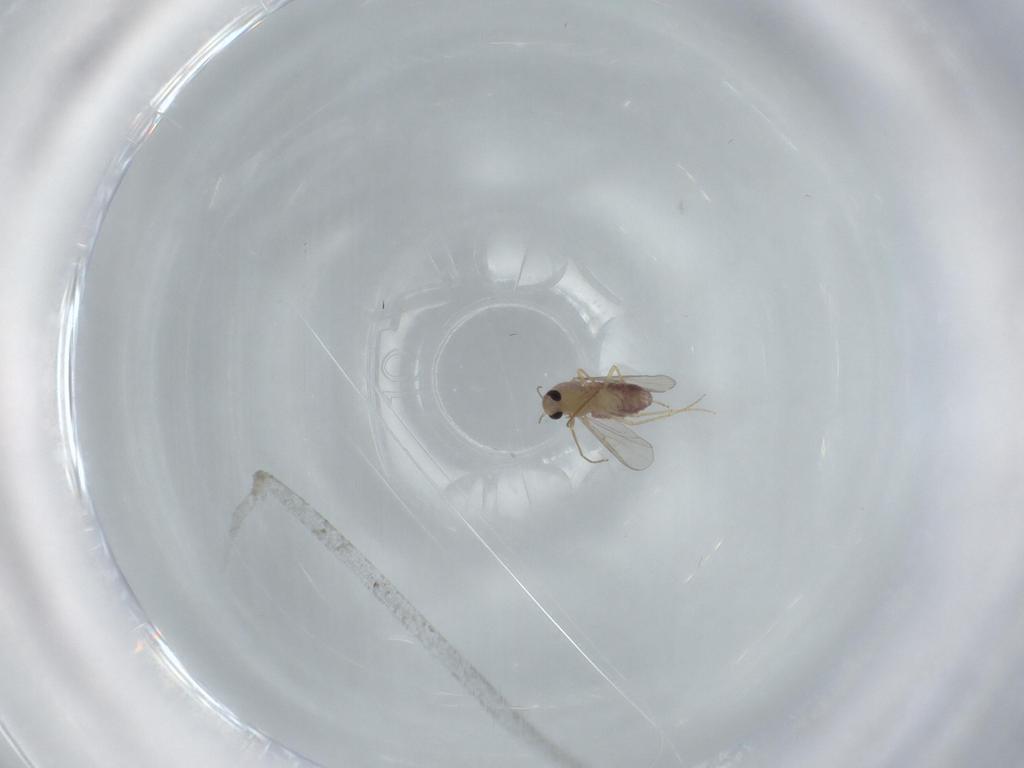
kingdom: Animalia
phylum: Arthropoda
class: Insecta
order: Diptera
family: Chironomidae
